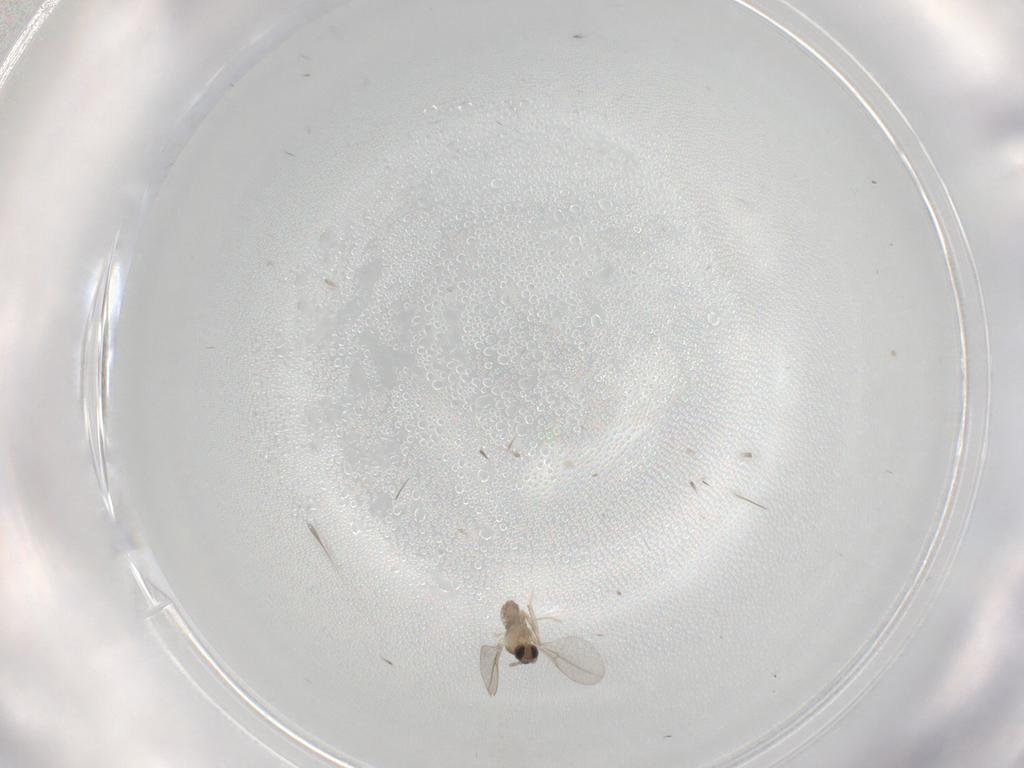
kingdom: Animalia
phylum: Arthropoda
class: Insecta
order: Diptera
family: Cecidomyiidae
